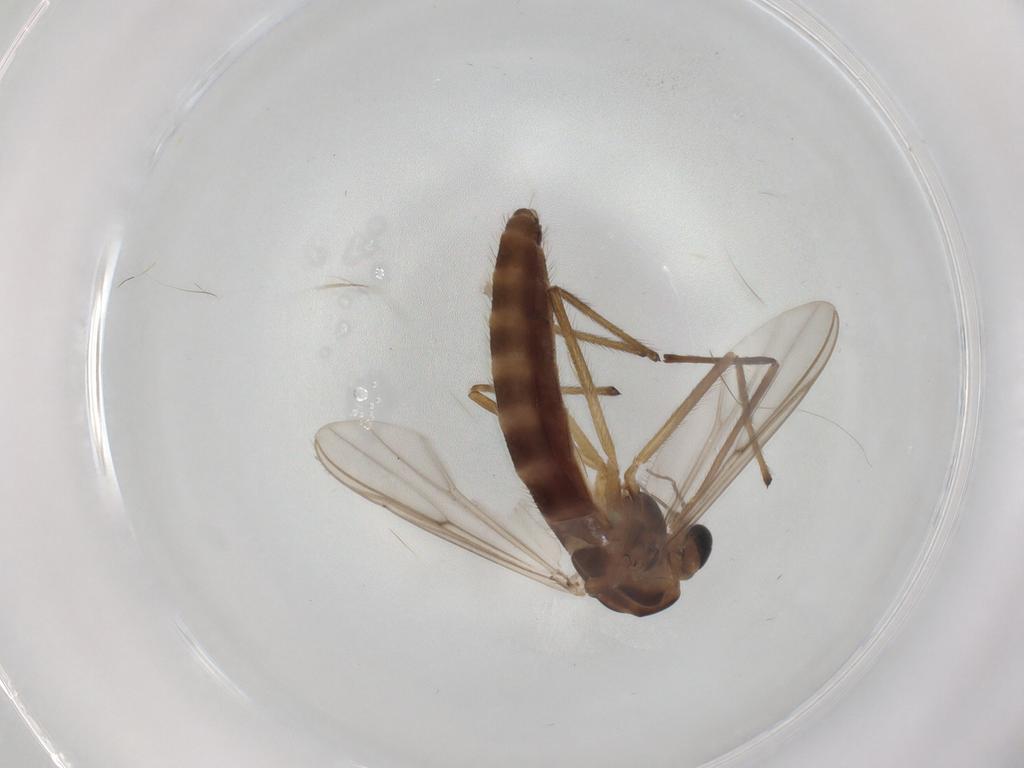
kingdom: Animalia
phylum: Arthropoda
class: Insecta
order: Diptera
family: Chironomidae
